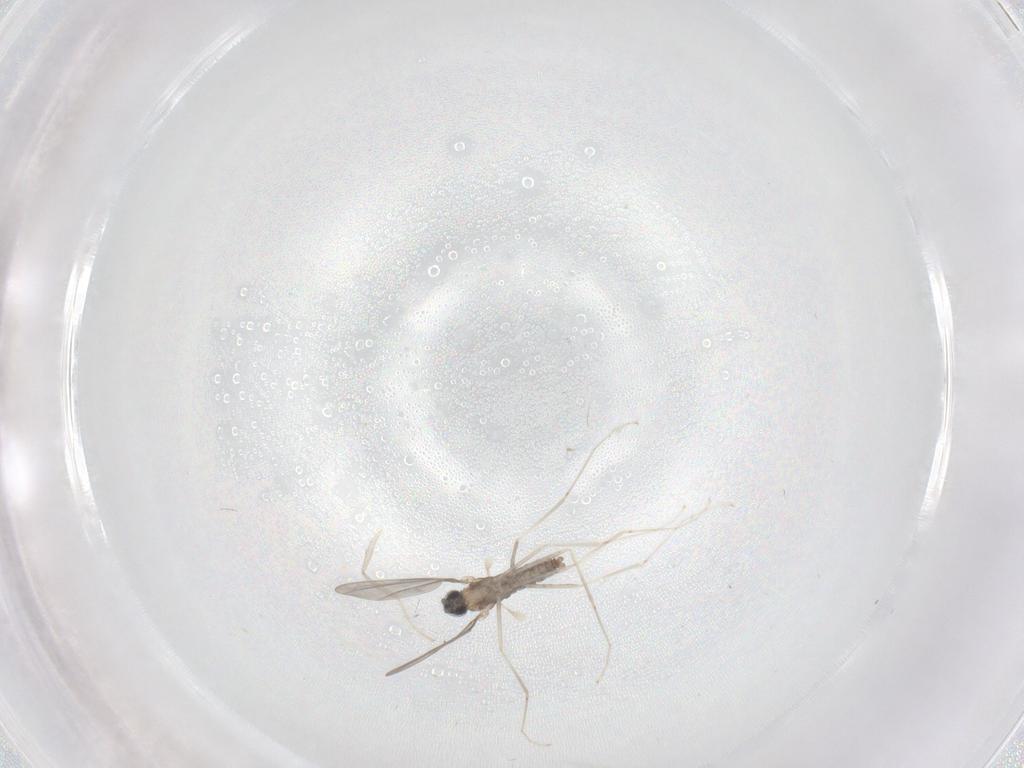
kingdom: Animalia
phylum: Arthropoda
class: Insecta
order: Diptera
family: Cecidomyiidae
